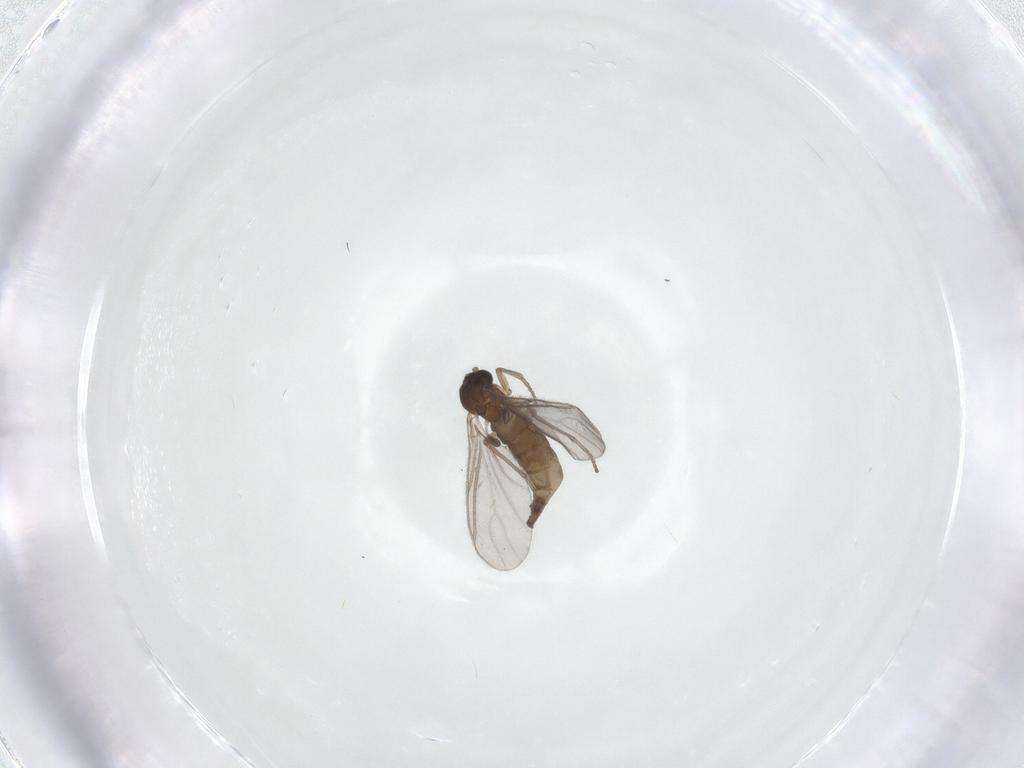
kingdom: Animalia
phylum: Arthropoda
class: Insecta
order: Diptera
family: Sciaridae
